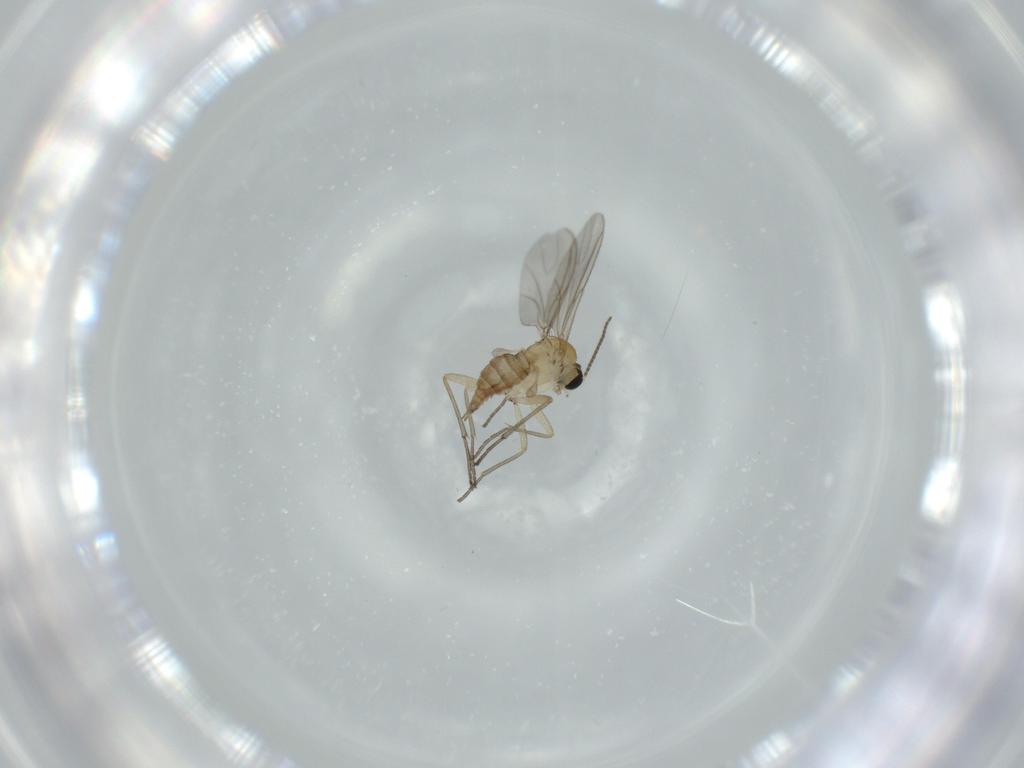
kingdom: Animalia
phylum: Arthropoda
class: Insecta
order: Diptera
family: Sciaridae
